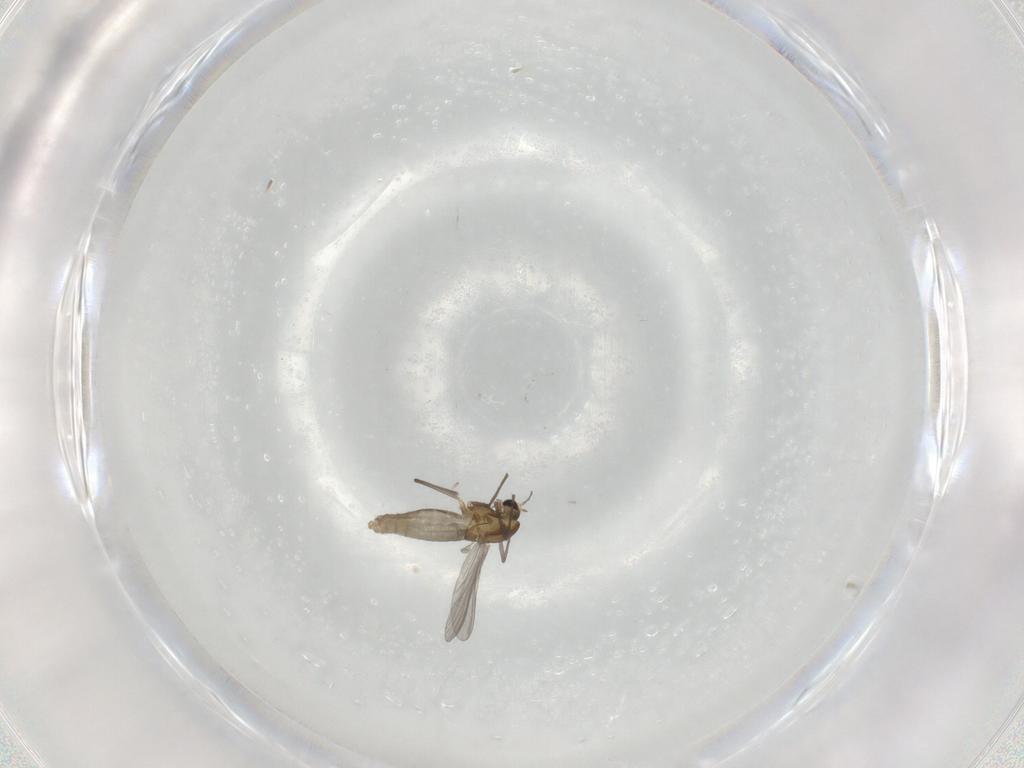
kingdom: Animalia
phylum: Arthropoda
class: Insecta
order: Diptera
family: Cecidomyiidae
